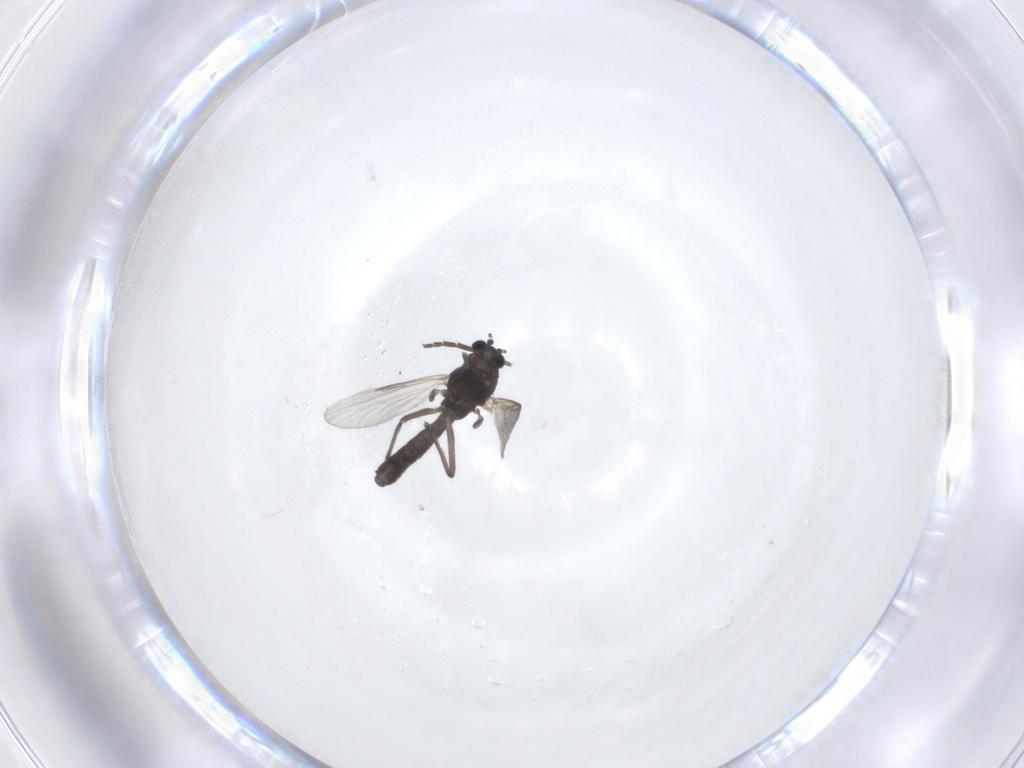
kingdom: Animalia
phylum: Arthropoda
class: Insecta
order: Diptera
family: Sciaridae
